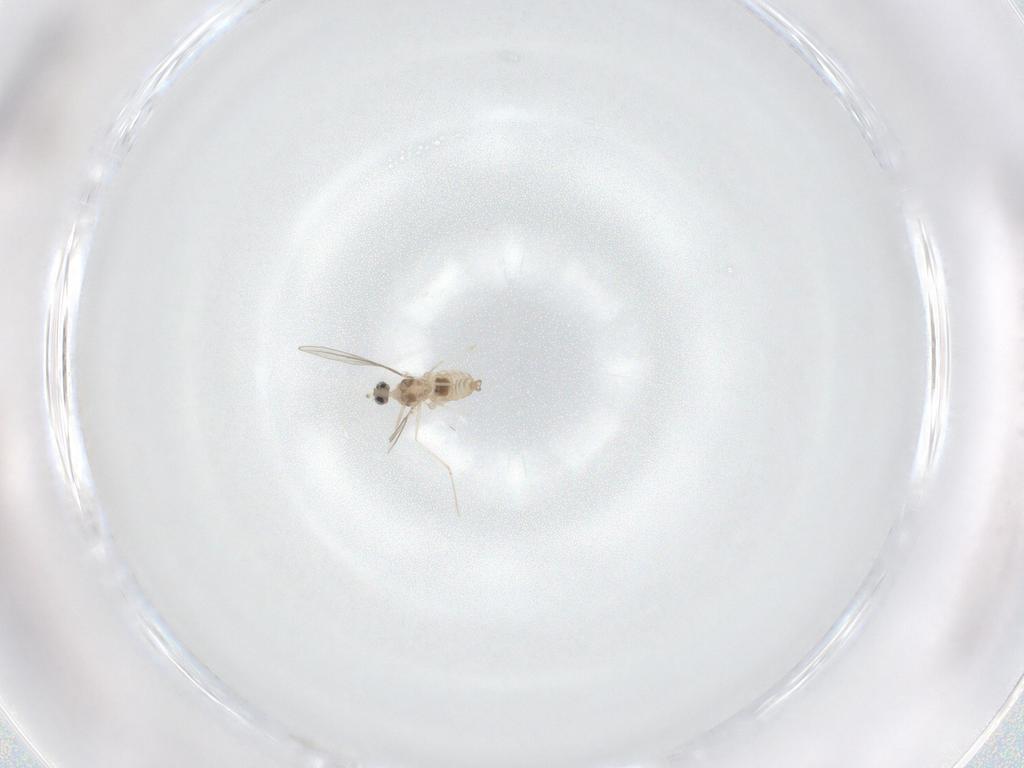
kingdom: Animalia
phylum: Arthropoda
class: Insecta
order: Diptera
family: Cecidomyiidae
